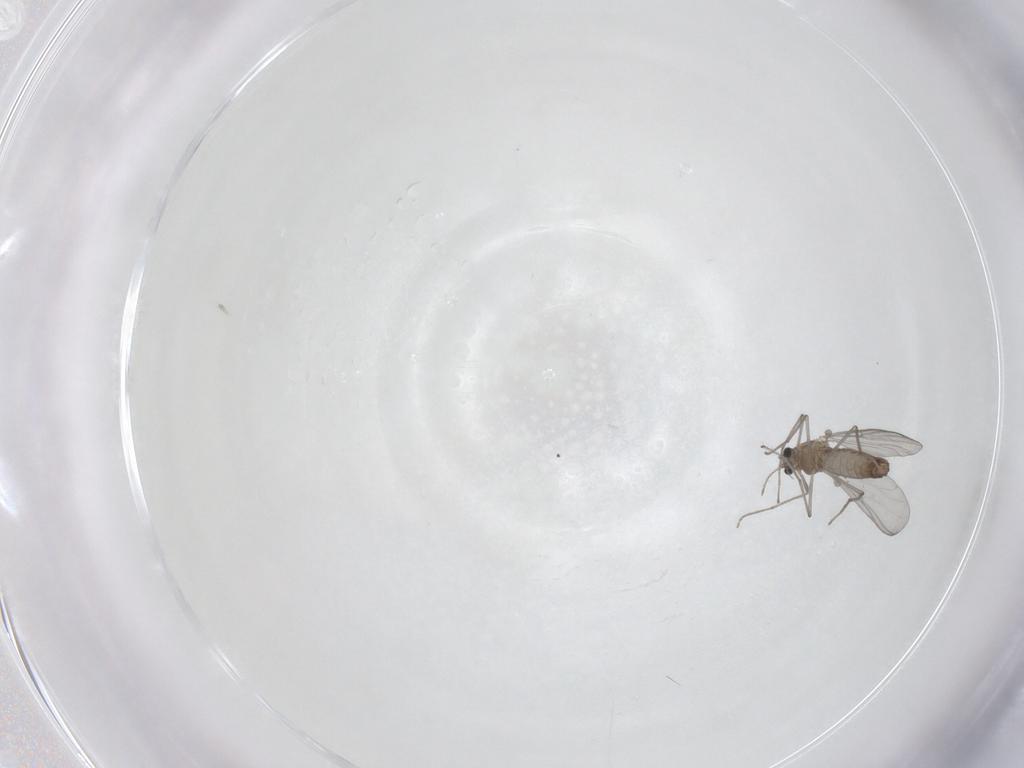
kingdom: Animalia
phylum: Arthropoda
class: Insecta
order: Diptera
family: Chironomidae
